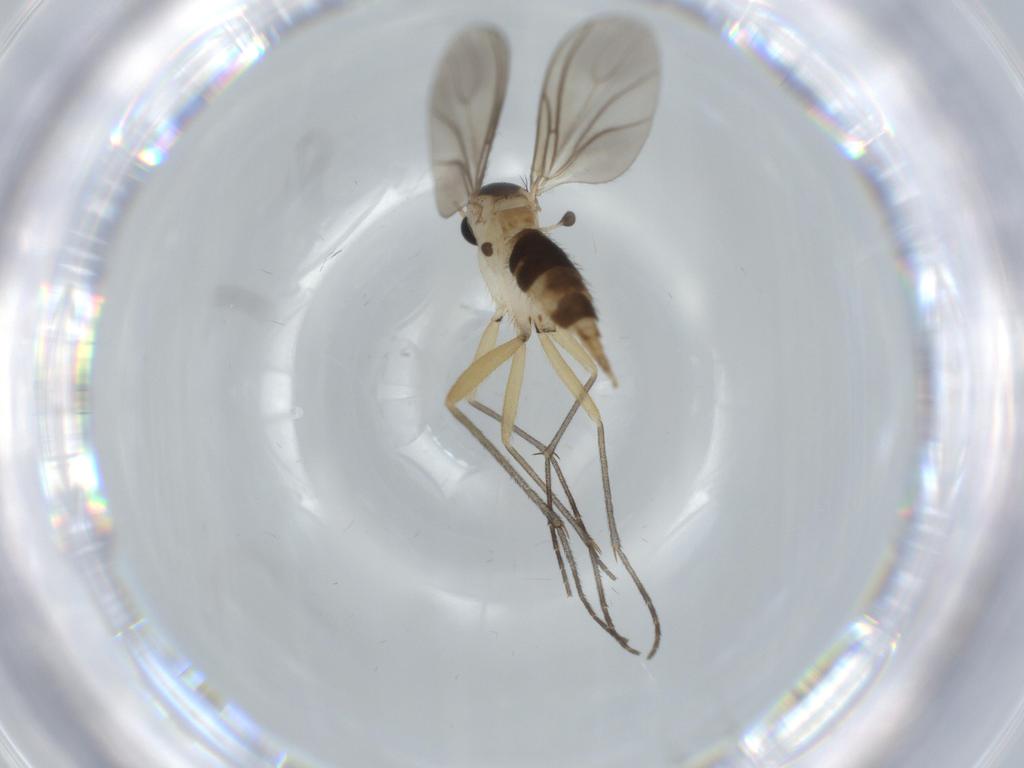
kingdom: Animalia
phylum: Arthropoda
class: Insecta
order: Diptera
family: Sciaridae
